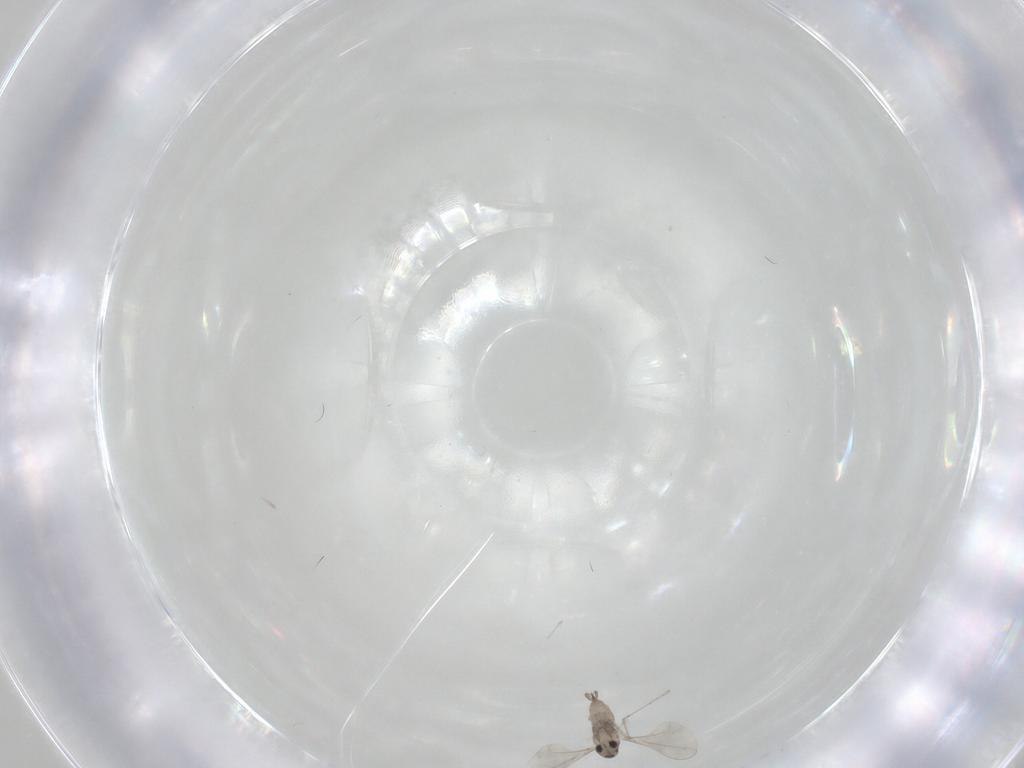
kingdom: Animalia
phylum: Arthropoda
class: Insecta
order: Diptera
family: Cecidomyiidae
